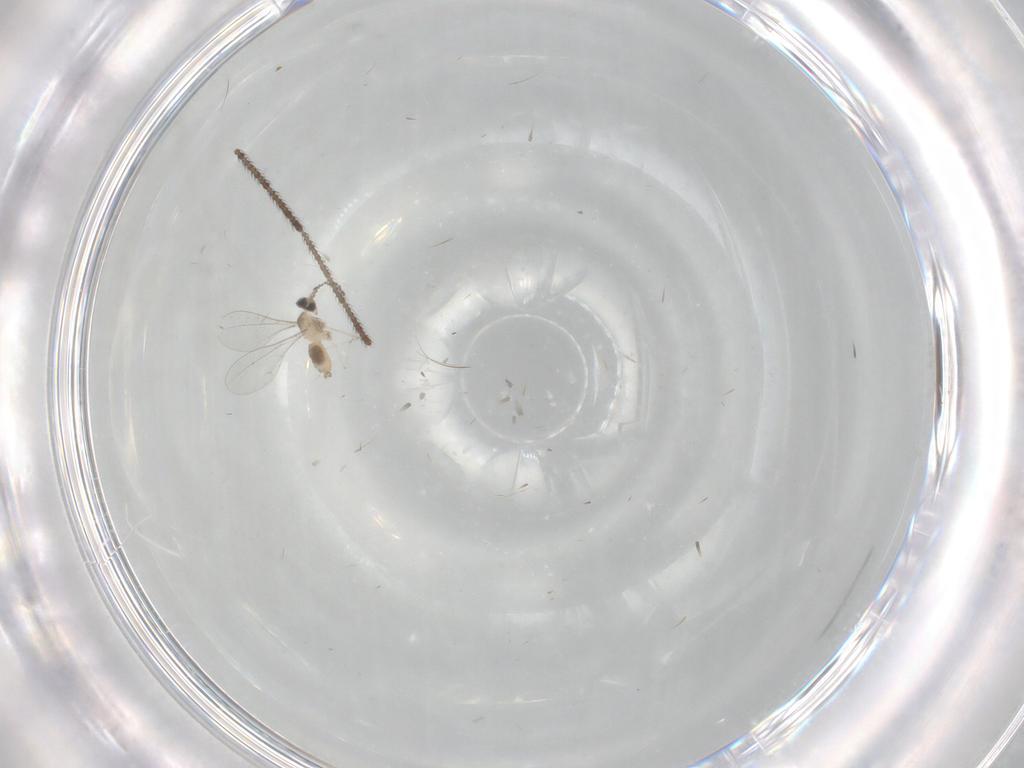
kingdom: Animalia
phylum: Arthropoda
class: Insecta
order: Diptera
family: Cecidomyiidae
